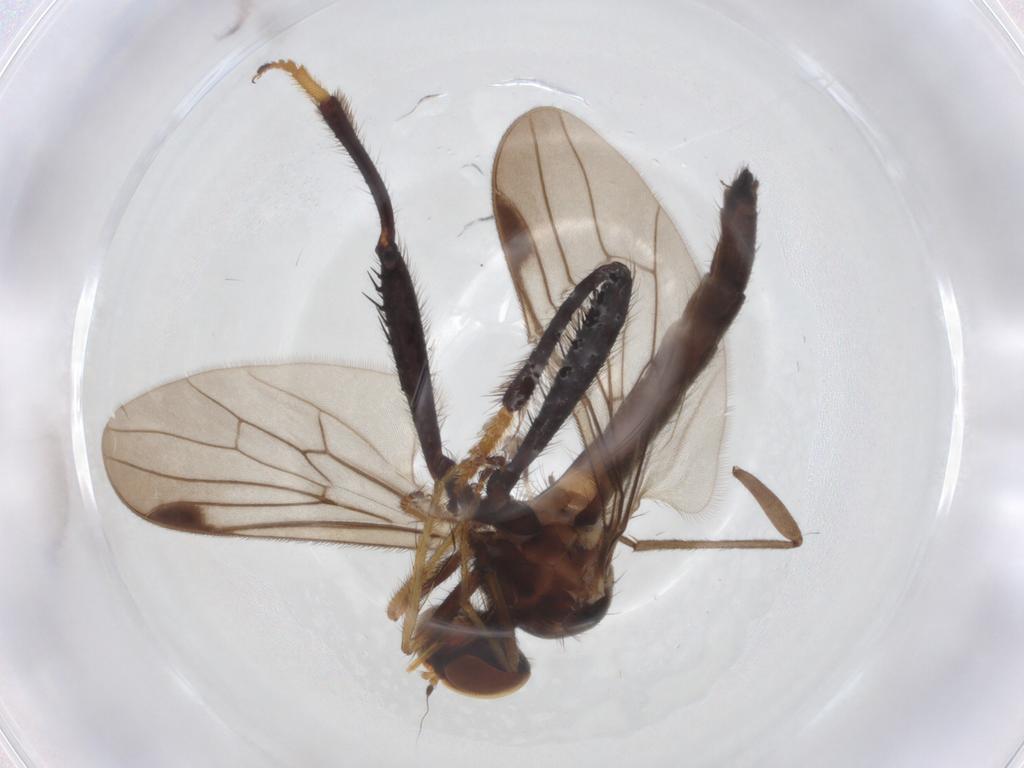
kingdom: Animalia
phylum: Arthropoda
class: Insecta
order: Diptera
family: Hybotidae
